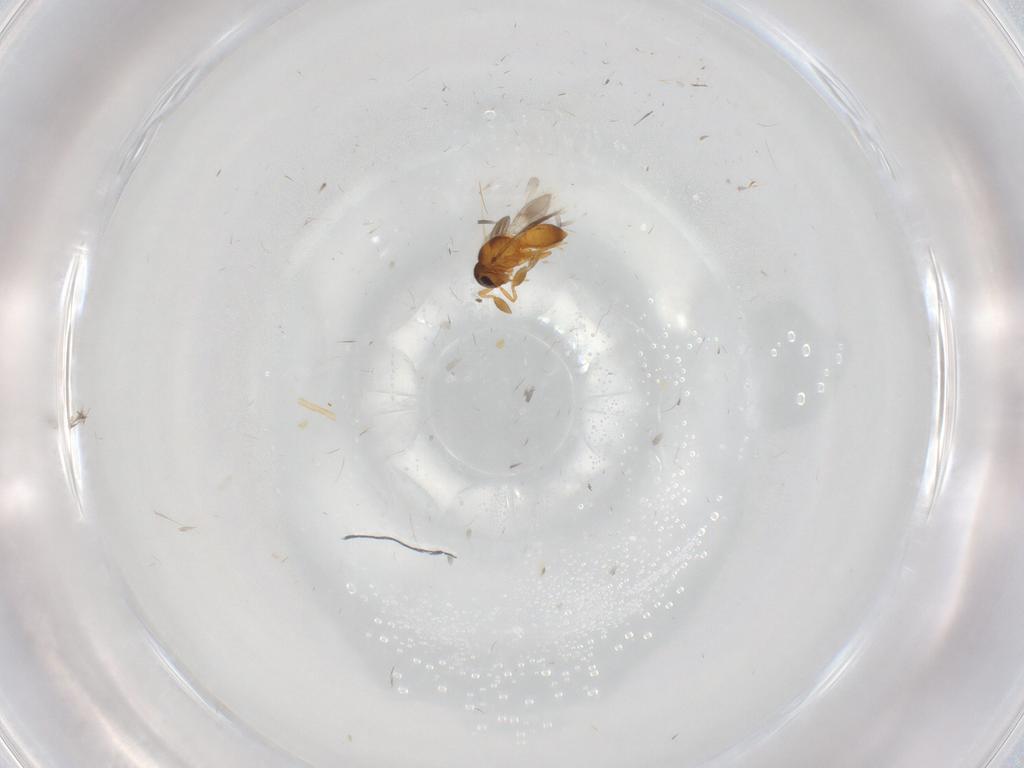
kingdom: Animalia
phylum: Arthropoda
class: Insecta
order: Hymenoptera
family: Scelionidae
